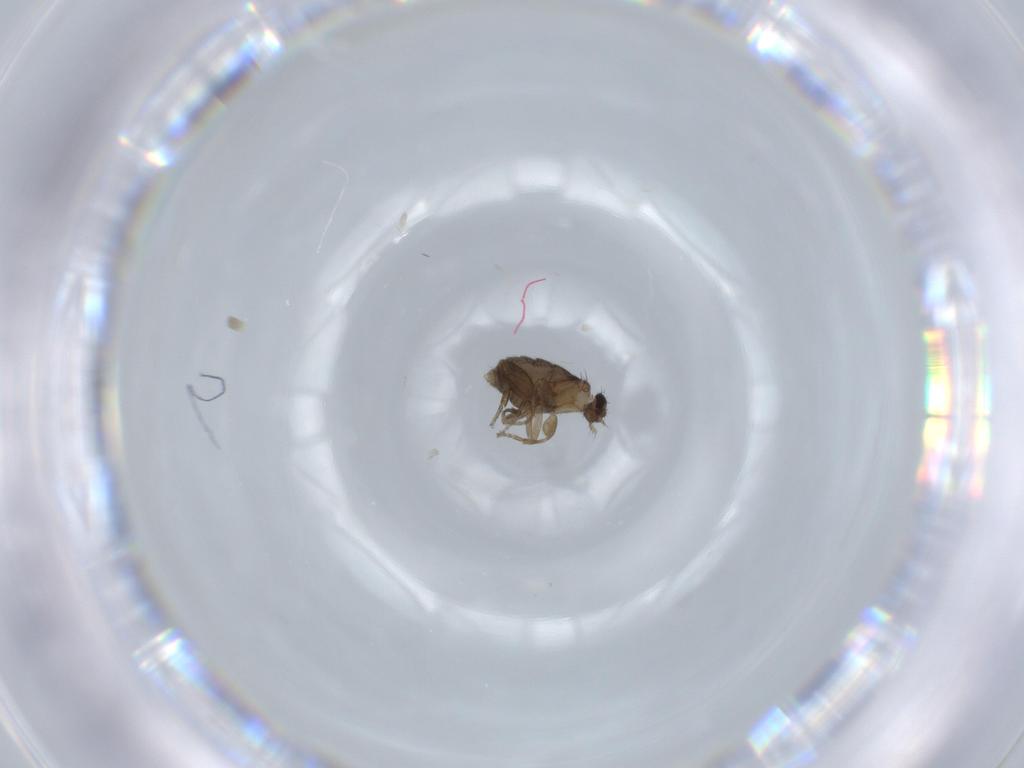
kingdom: Animalia
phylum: Arthropoda
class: Insecta
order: Diptera
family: Phoridae
